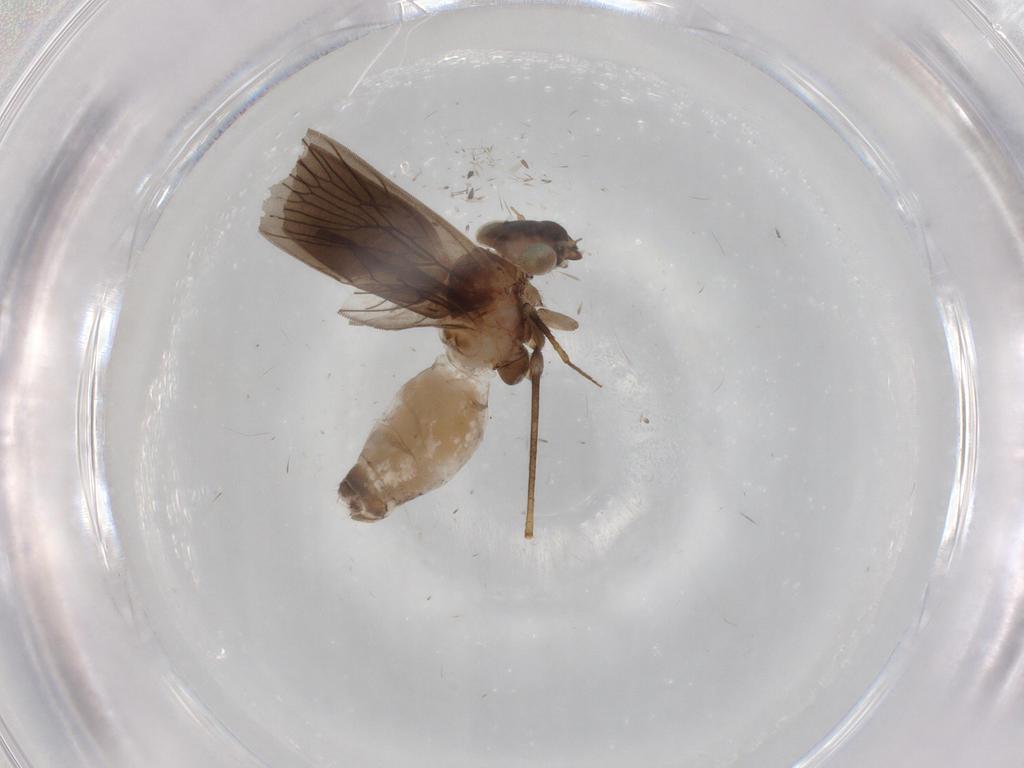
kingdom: Animalia
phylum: Arthropoda
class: Insecta
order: Psocodea
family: Lepidopsocidae
